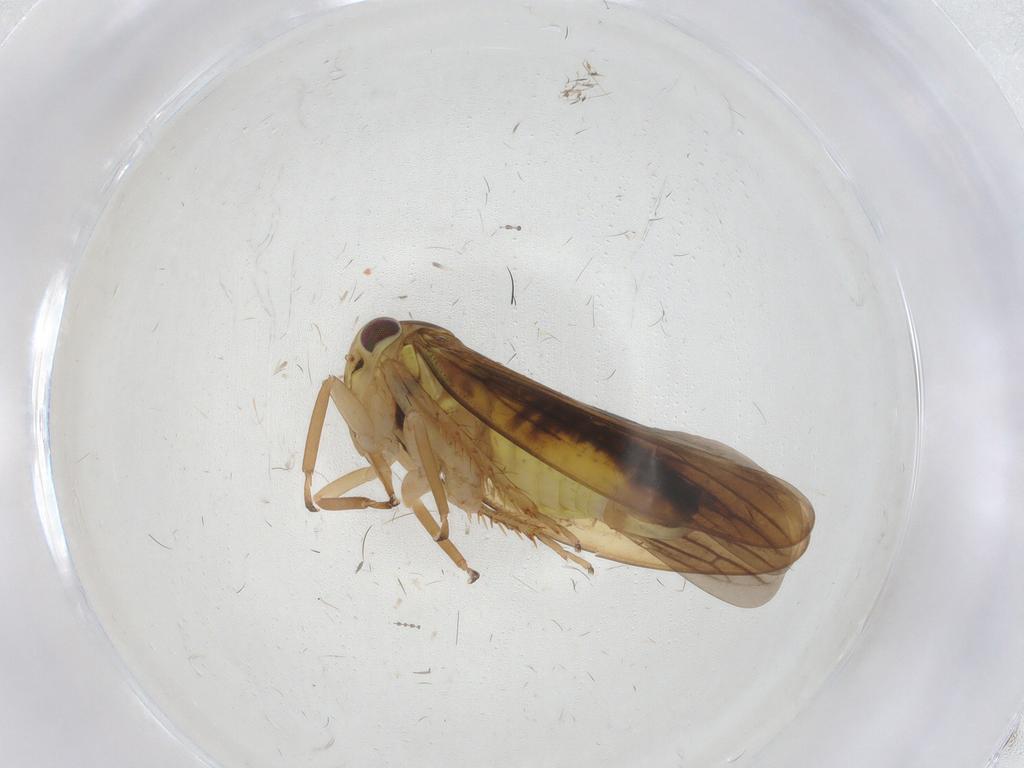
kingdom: Animalia
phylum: Arthropoda
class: Insecta
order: Hemiptera
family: Cicadellidae
